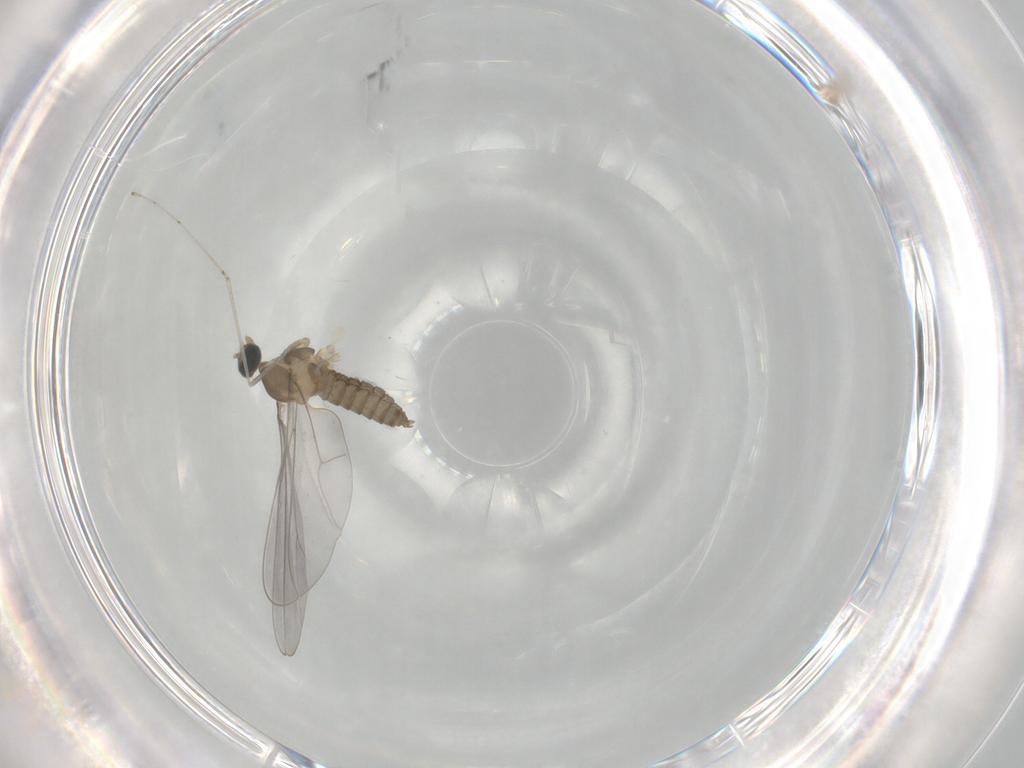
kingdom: Animalia
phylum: Arthropoda
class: Insecta
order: Diptera
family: Cecidomyiidae
